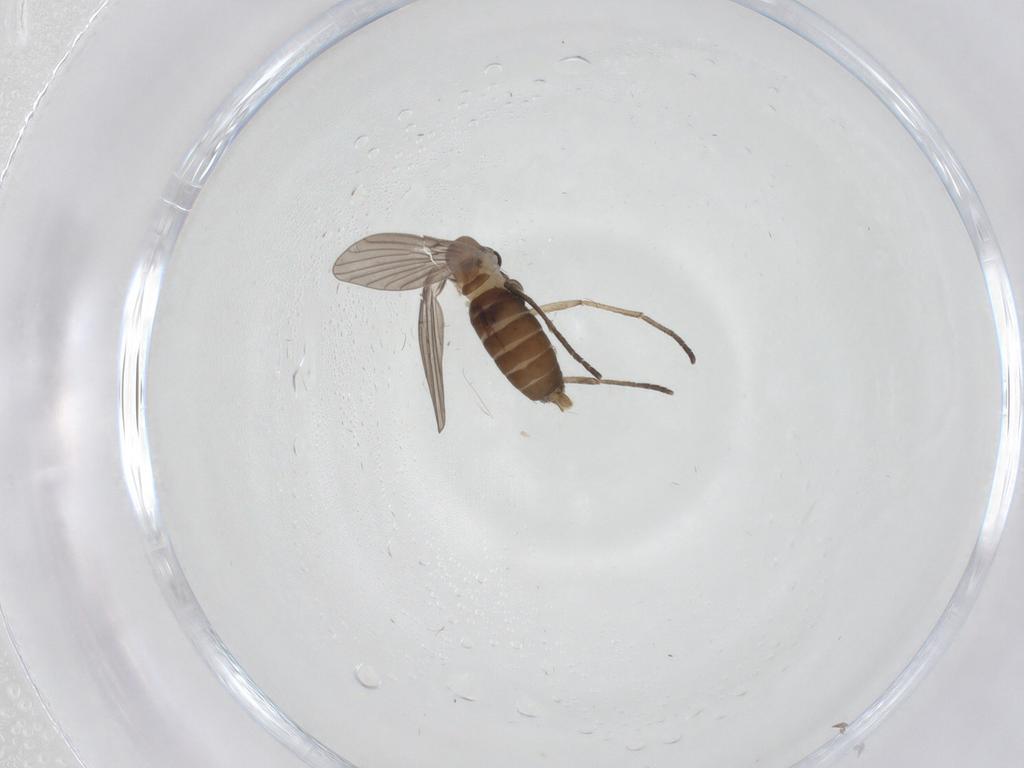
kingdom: Animalia
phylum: Arthropoda
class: Insecta
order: Diptera
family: Psychodidae
